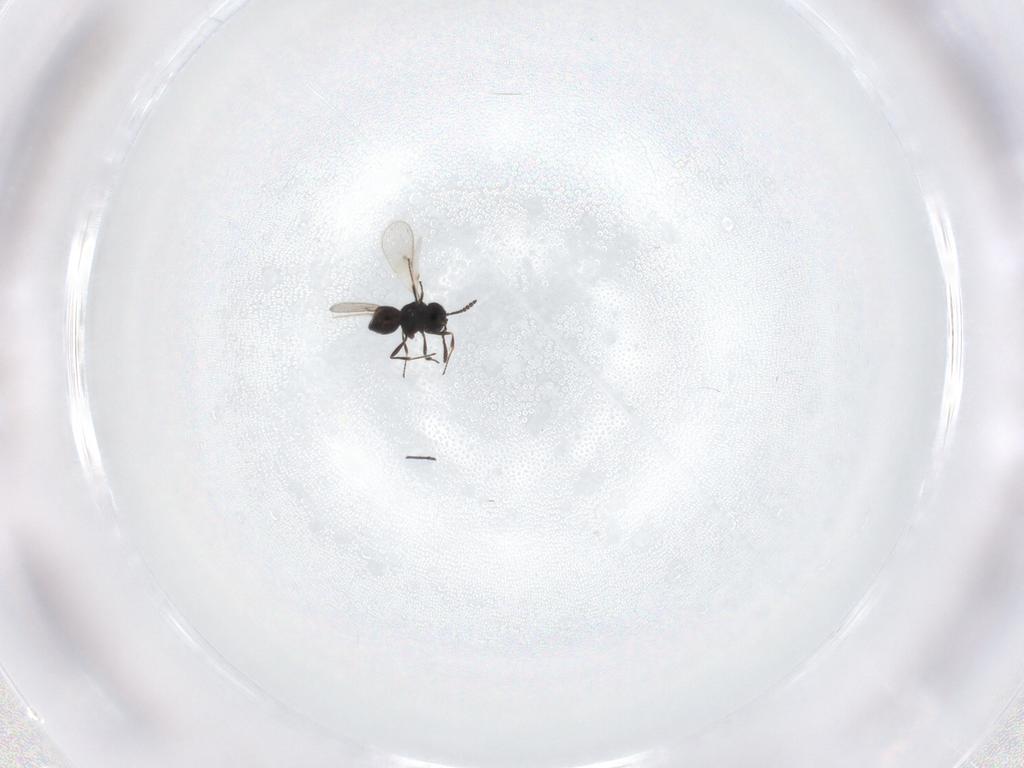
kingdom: Animalia
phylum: Arthropoda
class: Insecta
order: Hymenoptera
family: Scelionidae
